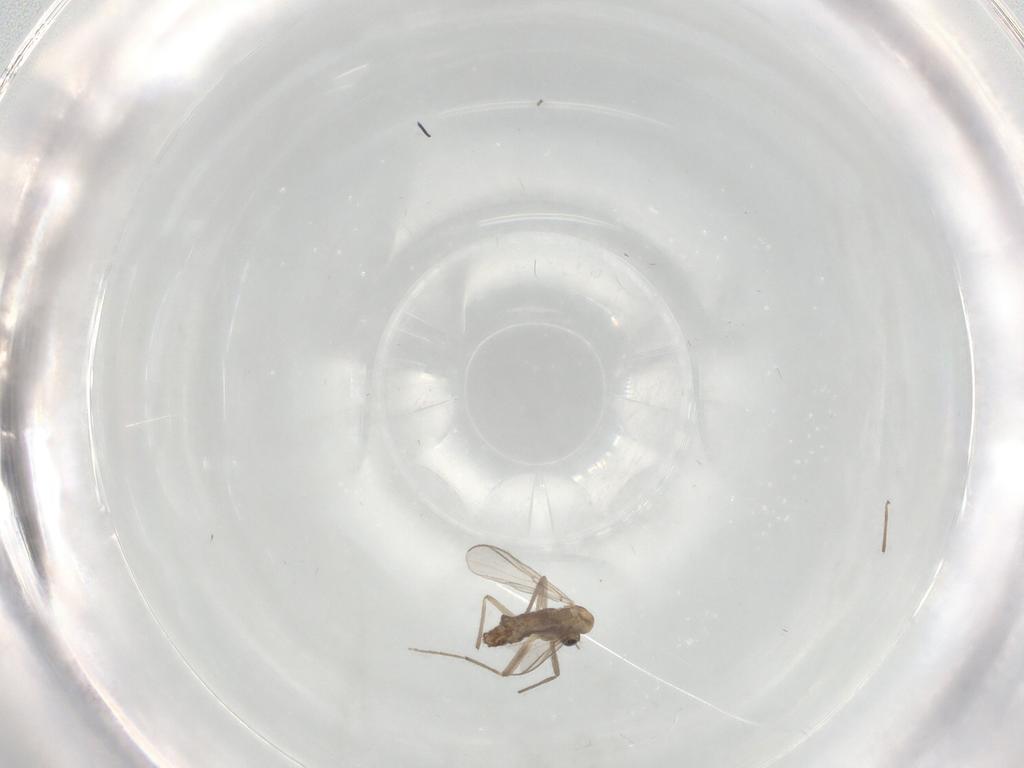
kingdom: Animalia
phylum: Arthropoda
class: Insecta
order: Diptera
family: Chironomidae
